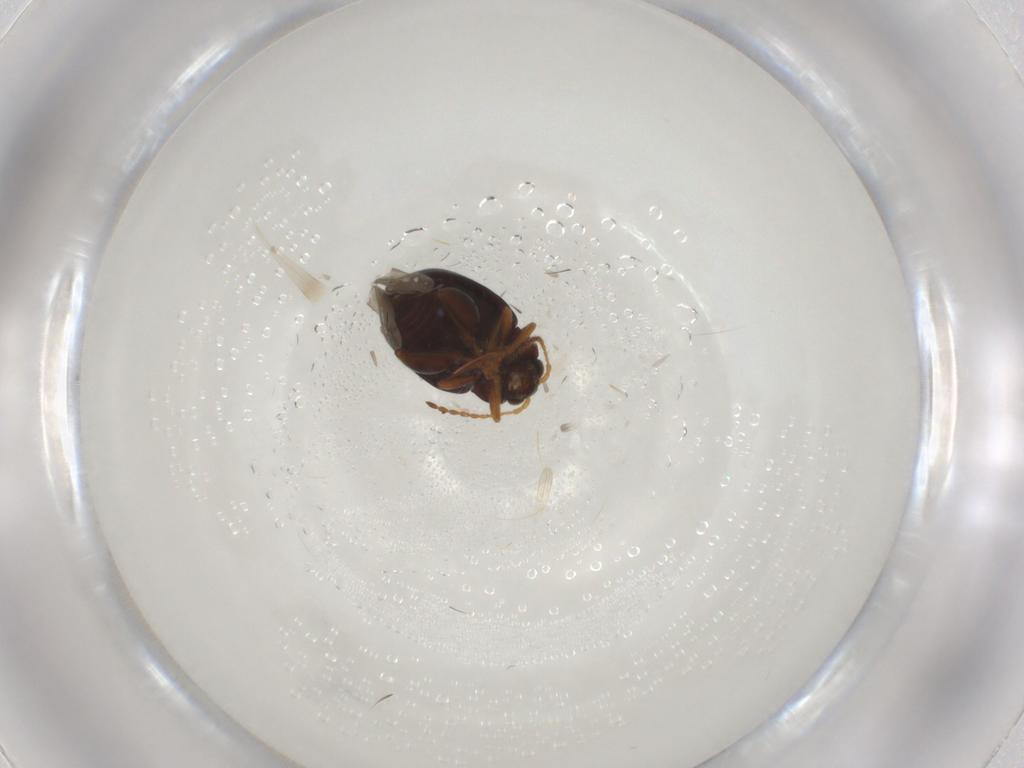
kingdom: Animalia
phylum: Arthropoda
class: Insecta
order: Coleoptera
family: Chrysomelidae
